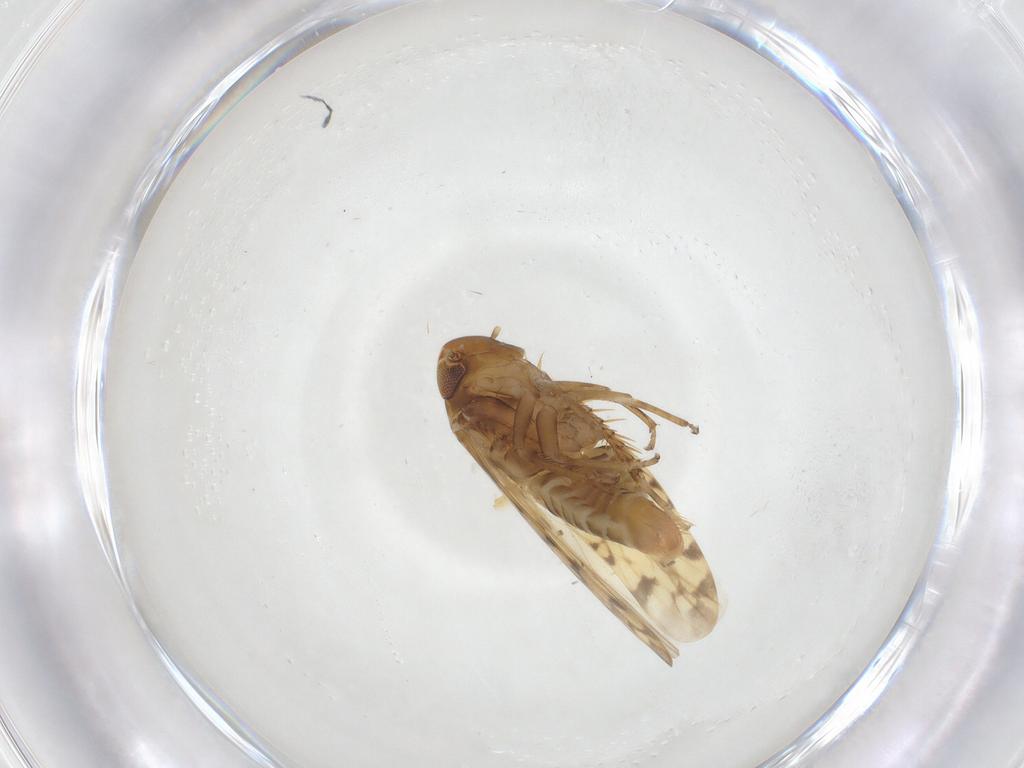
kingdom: Animalia
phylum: Arthropoda
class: Insecta
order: Hemiptera
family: Cicadellidae
